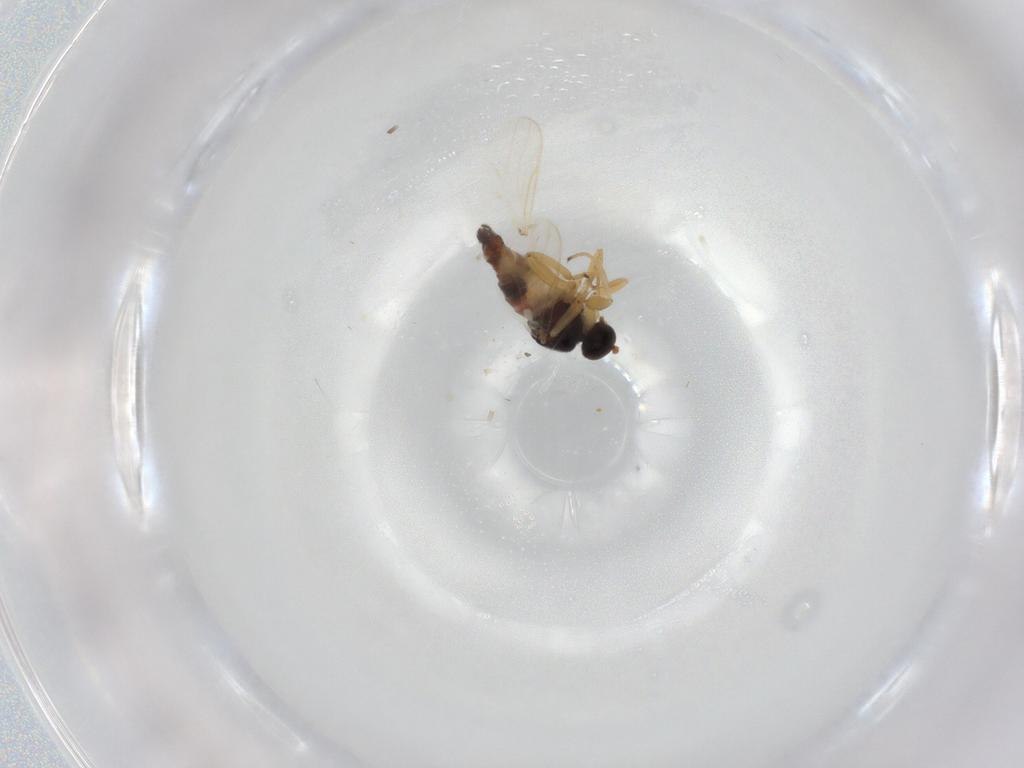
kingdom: Animalia
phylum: Arthropoda
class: Insecta
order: Diptera
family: Hybotidae
